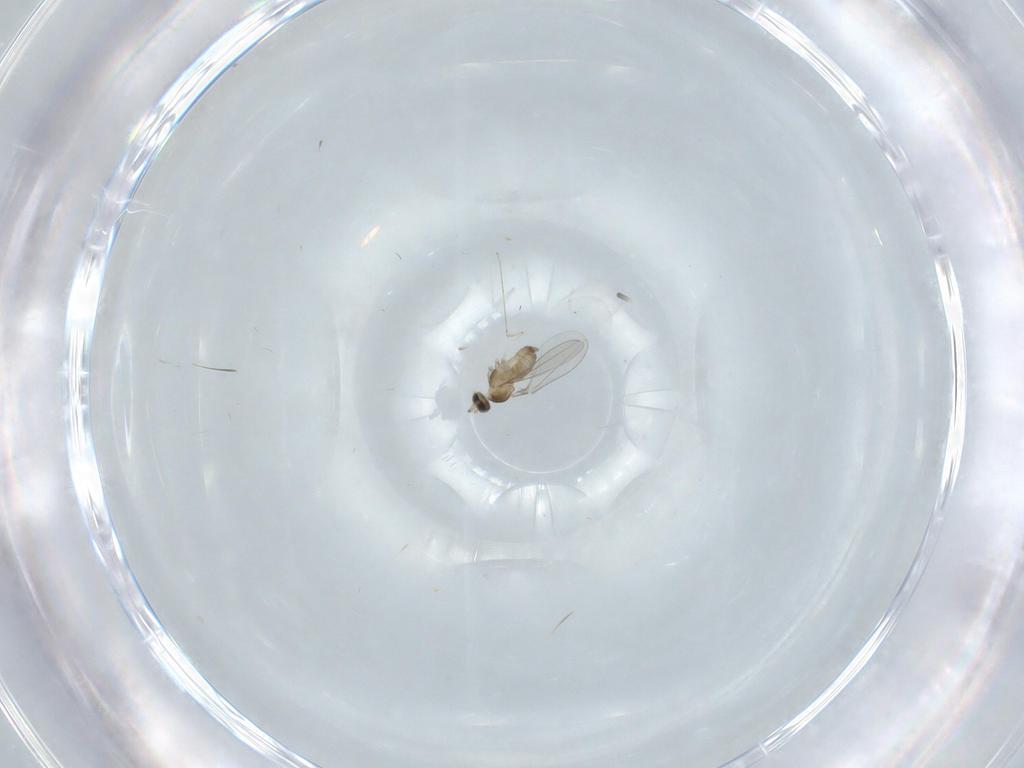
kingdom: Animalia
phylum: Arthropoda
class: Insecta
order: Diptera
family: Cecidomyiidae
